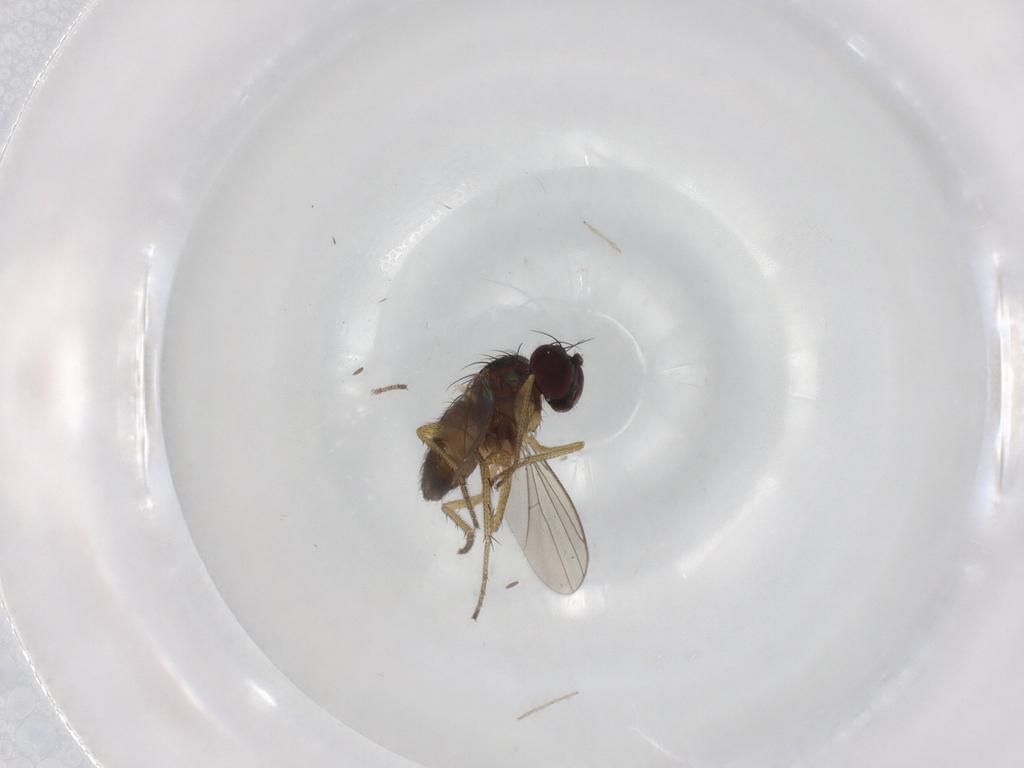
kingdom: Animalia
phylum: Arthropoda
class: Insecta
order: Diptera
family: Chironomidae
